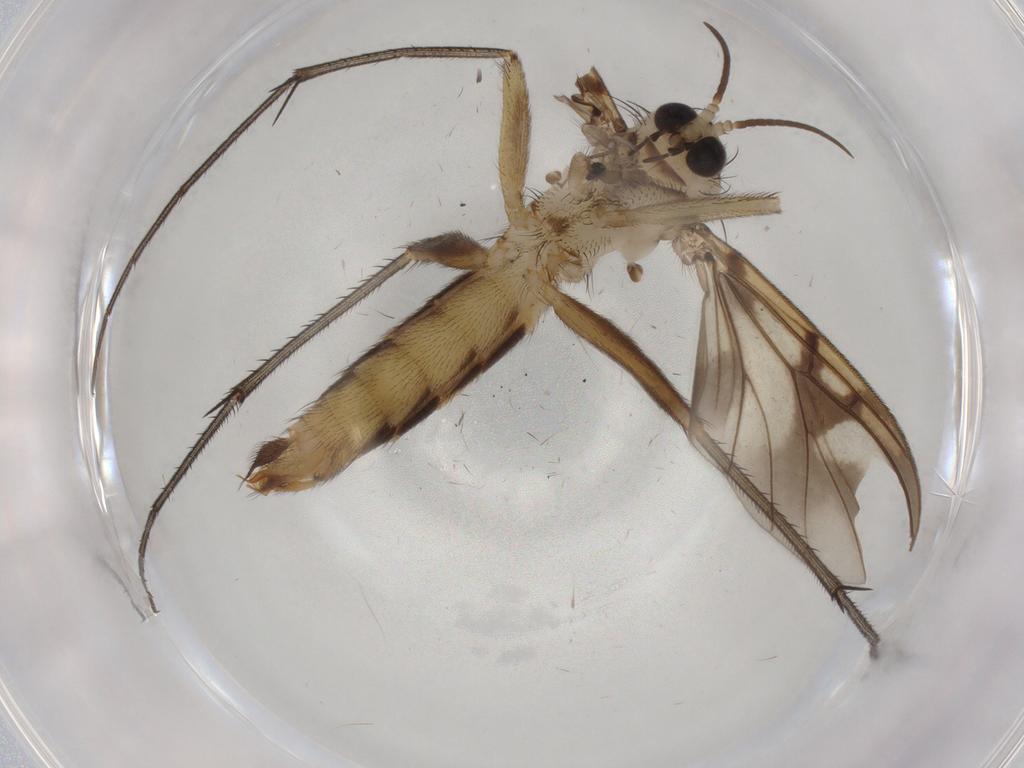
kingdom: Animalia
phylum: Arthropoda
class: Insecta
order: Diptera
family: Mycetophilidae
